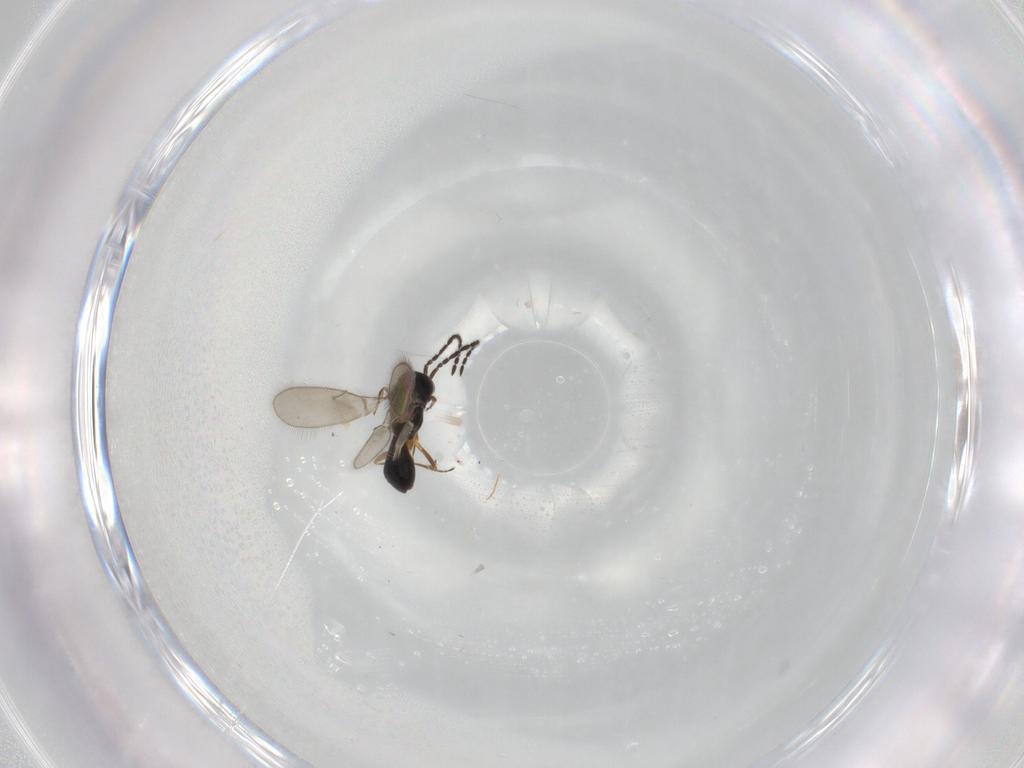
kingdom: Animalia
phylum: Arthropoda
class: Insecta
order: Hymenoptera
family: Scelionidae
